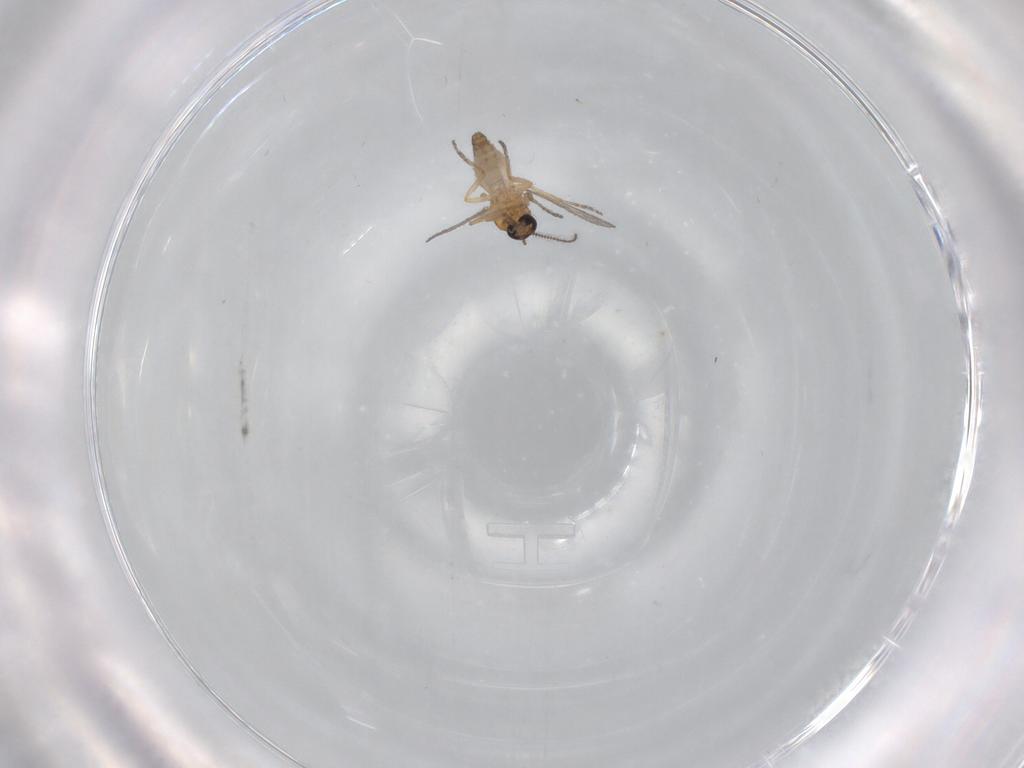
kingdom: Animalia
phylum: Arthropoda
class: Insecta
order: Diptera
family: Ceratopogonidae
